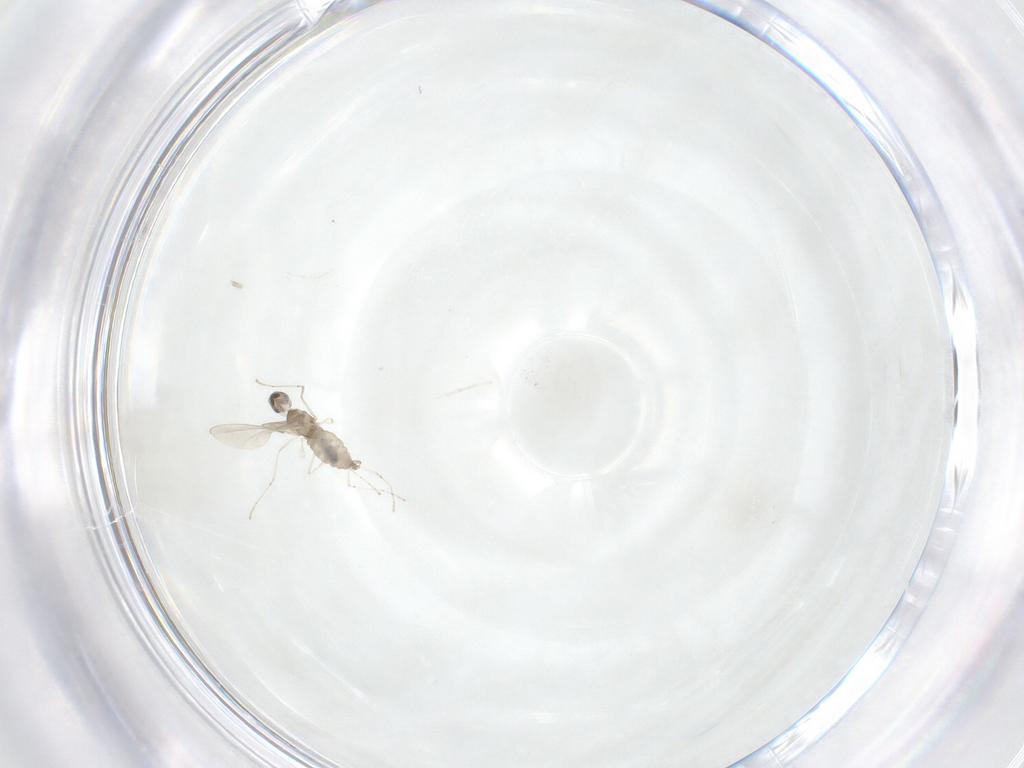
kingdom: Animalia
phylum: Arthropoda
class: Insecta
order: Diptera
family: Cecidomyiidae
